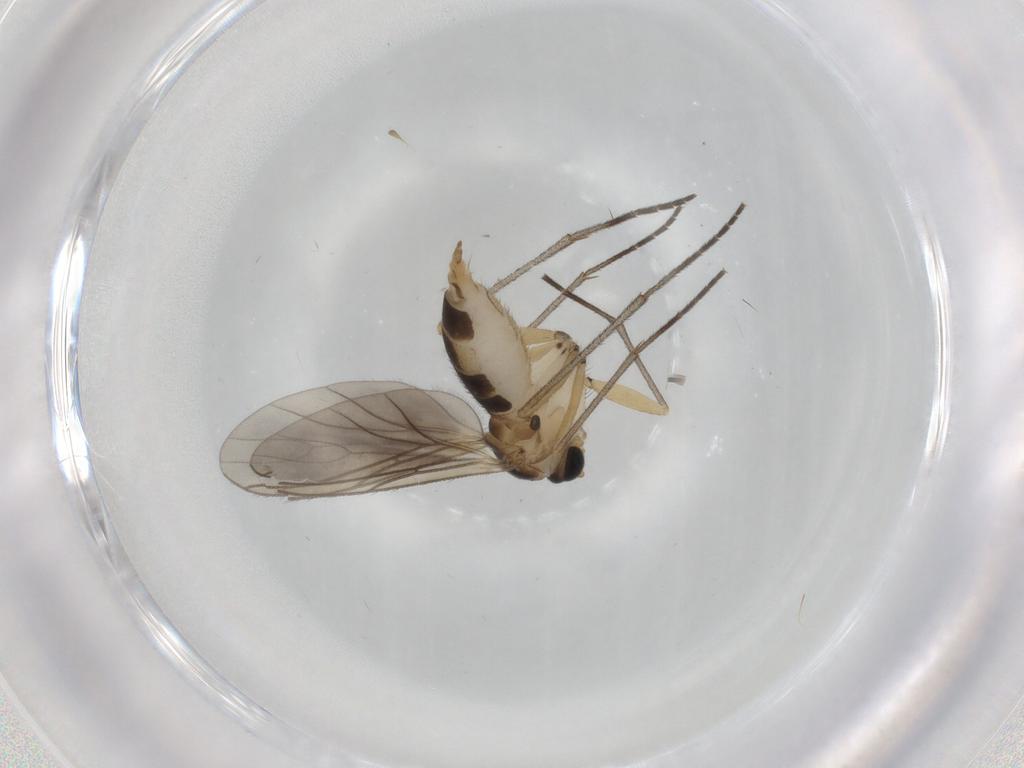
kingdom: Animalia
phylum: Arthropoda
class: Insecta
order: Diptera
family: Sciaridae
